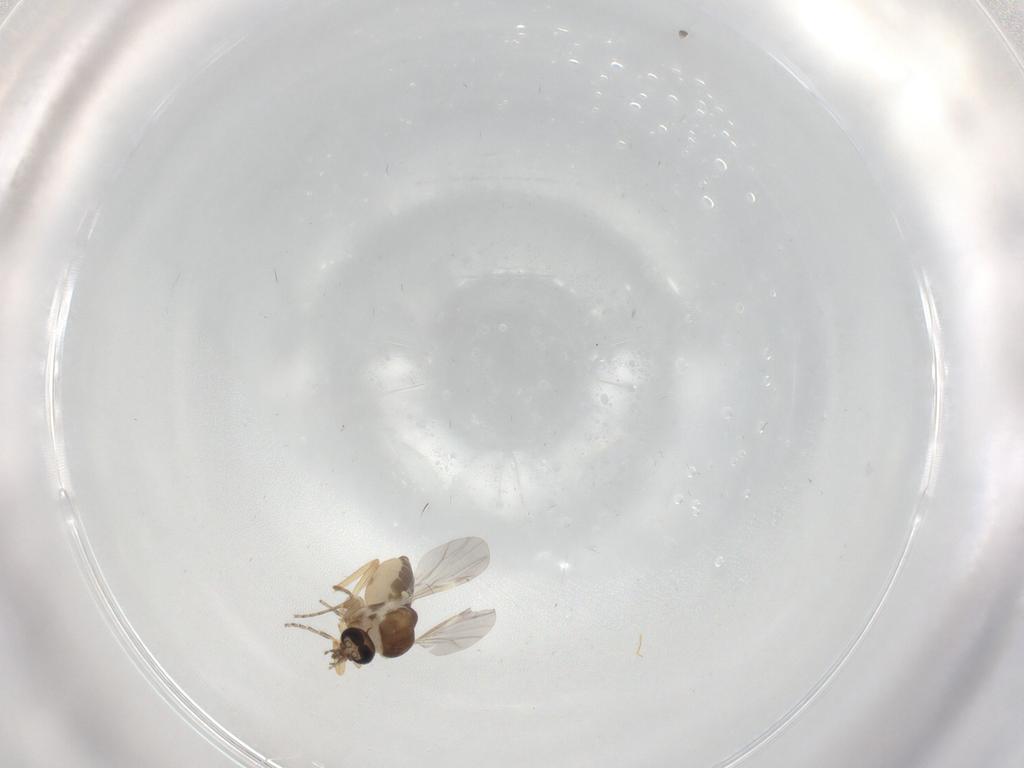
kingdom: Animalia
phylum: Arthropoda
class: Insecta
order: Diptera
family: Ceratopogonidae
